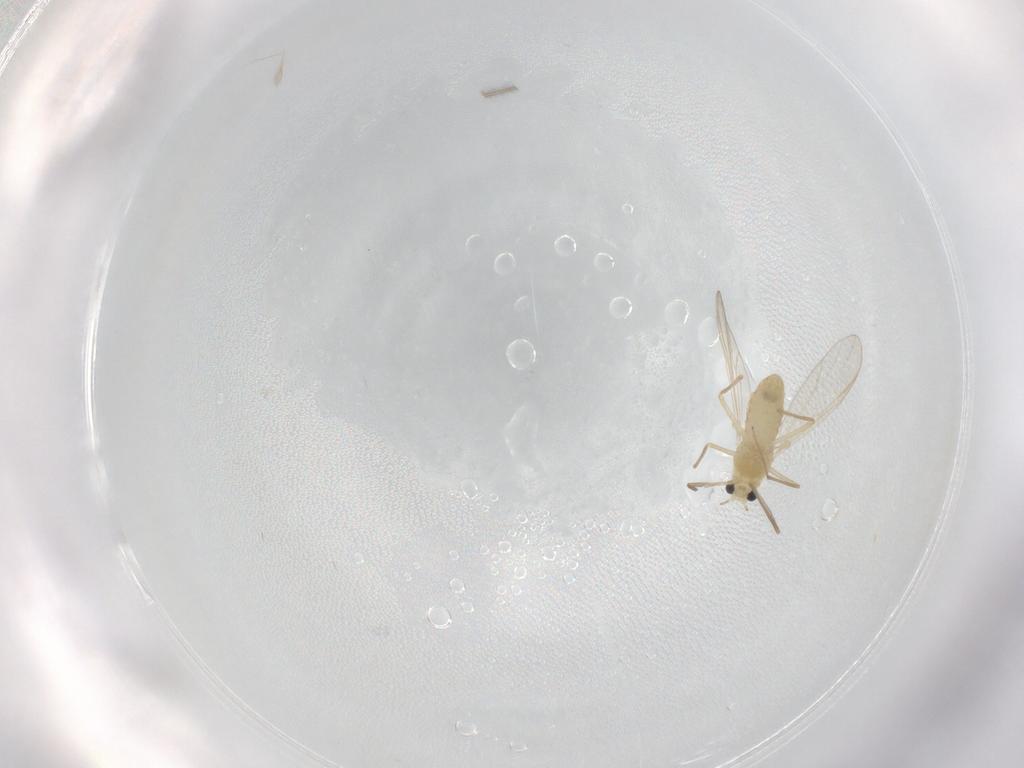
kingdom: Animalia
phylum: Arthropoda
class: Insecta
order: Diptera
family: Chironomidae
